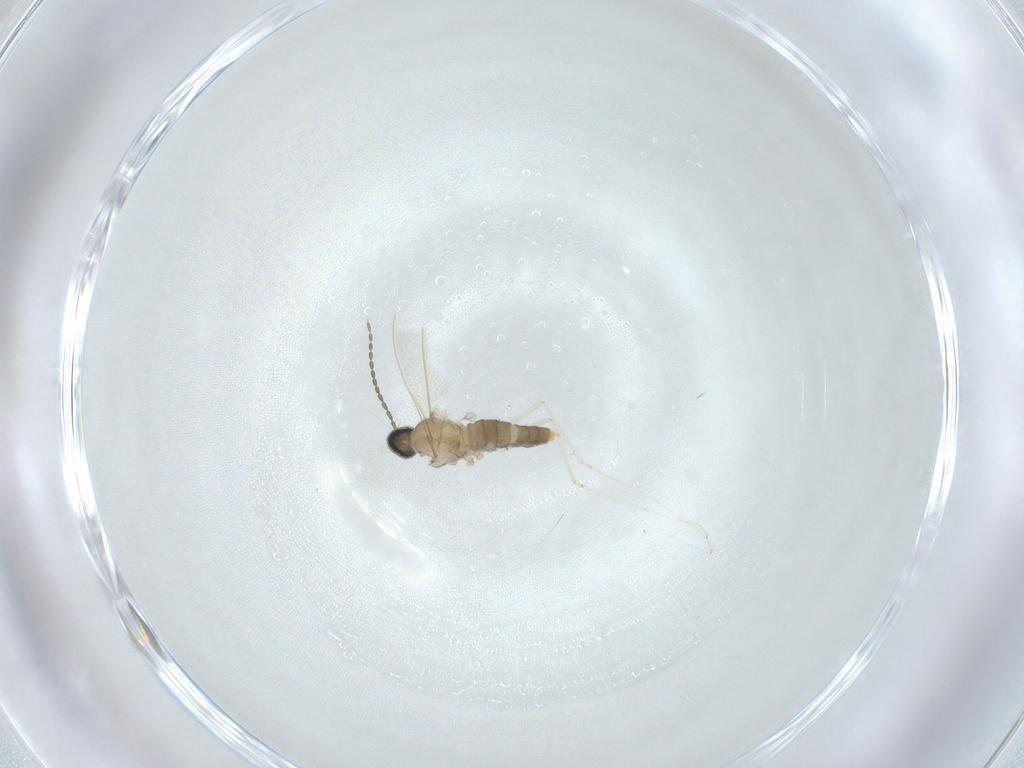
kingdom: Animalia
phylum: Arthropoda
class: Insecta
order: Diptera
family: Cecidomyiidae
